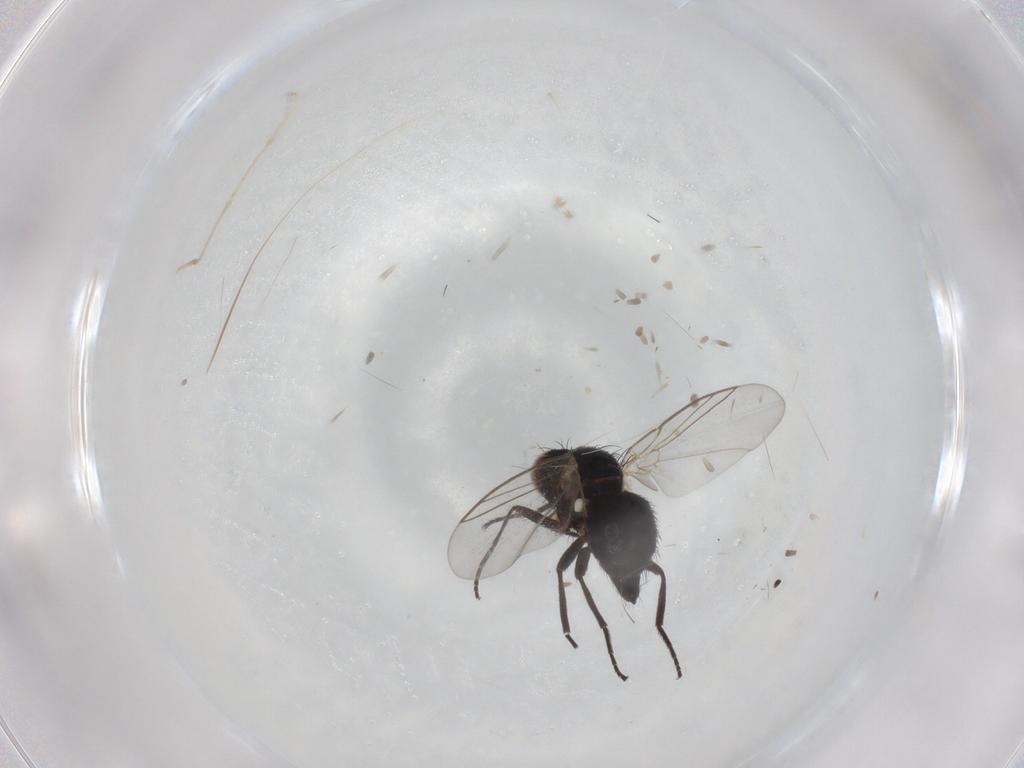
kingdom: Animalia
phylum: Arthropoda
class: Insecta
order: Diptera
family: Agromyzidae
